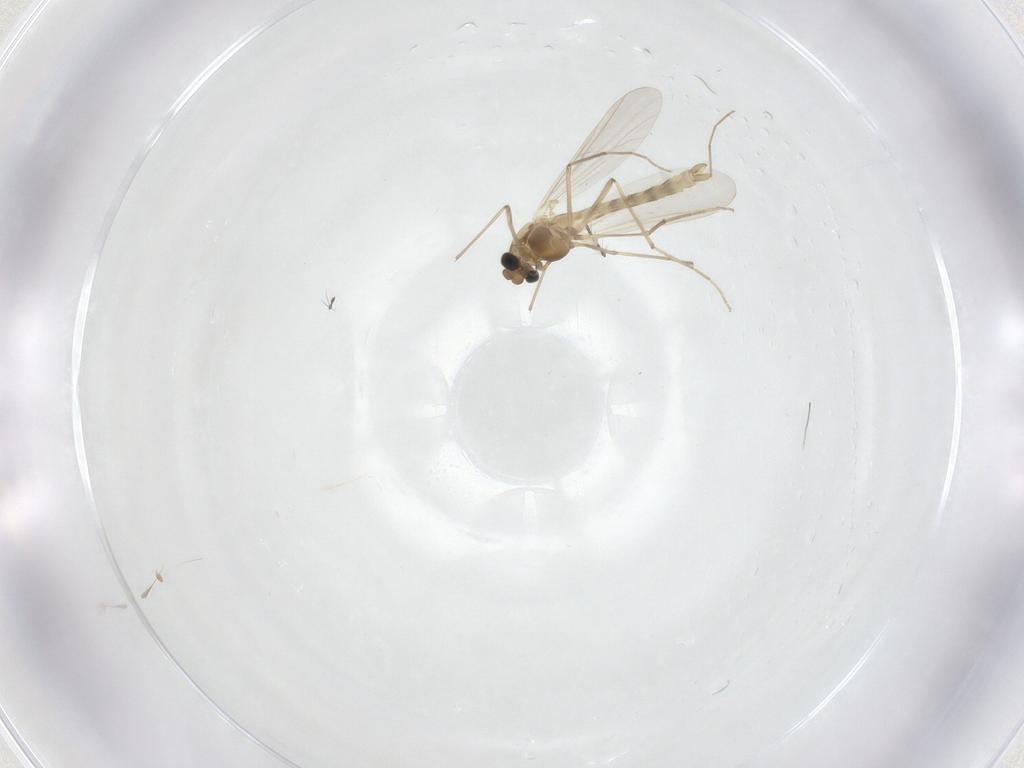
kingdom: Animalia
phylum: Arthropoda
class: Insecta
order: Diptera
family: Chironomidae
